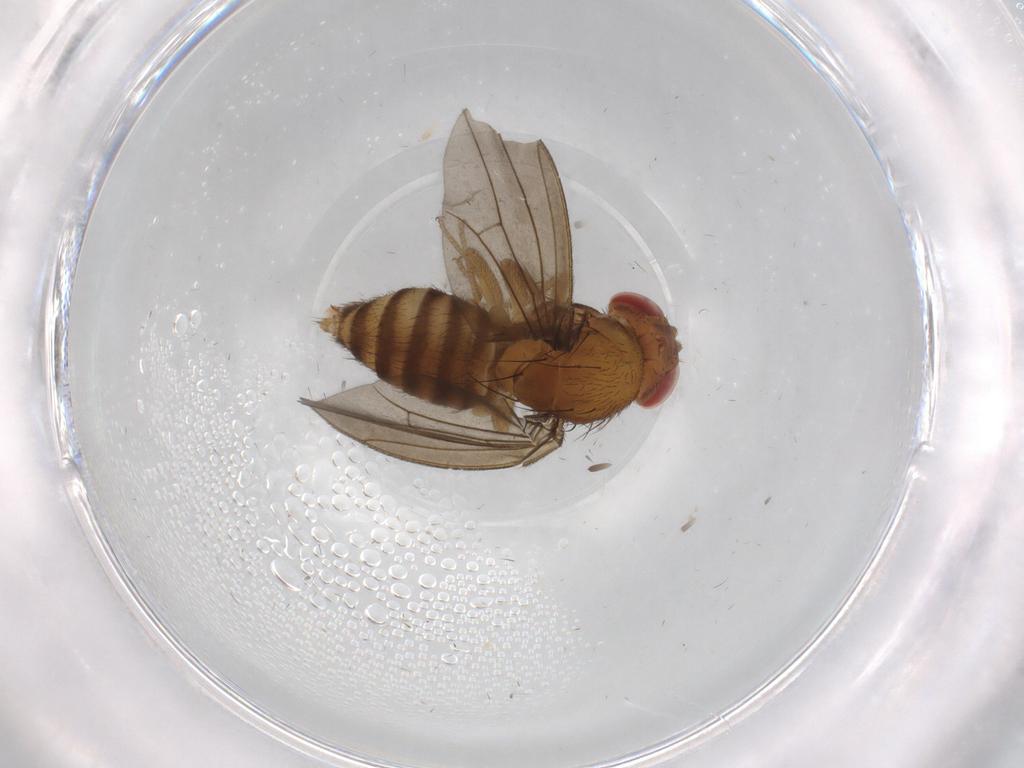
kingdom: Animalia
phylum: Arthropoda
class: Insecta
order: Diptera
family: Drosophilidae
